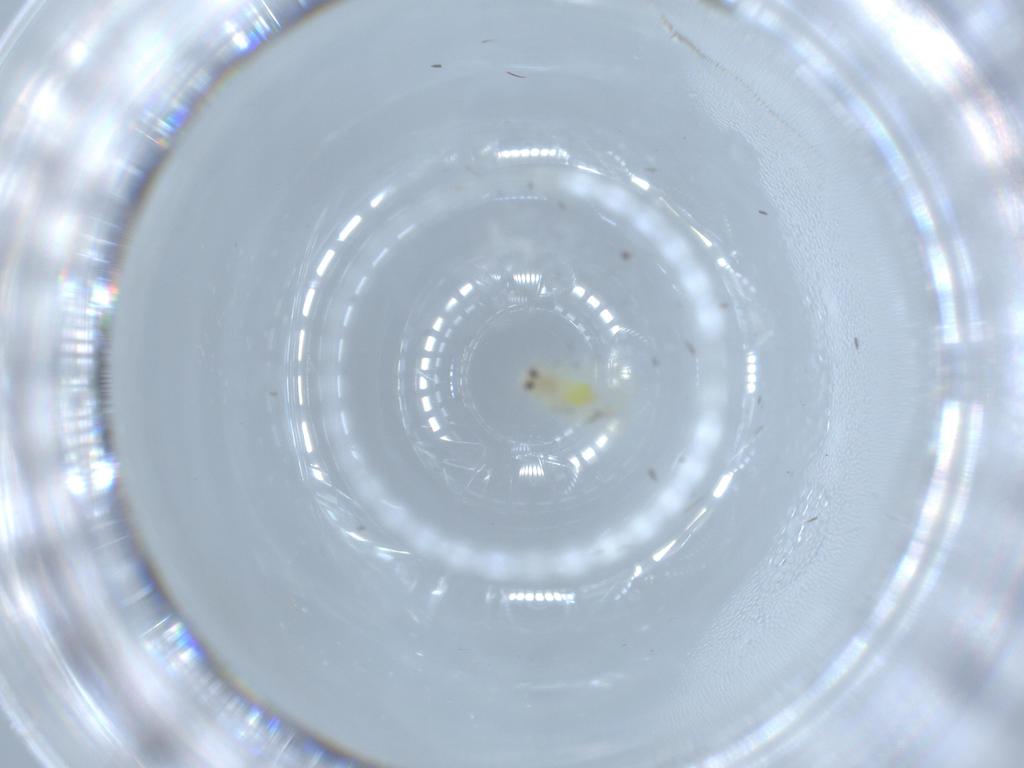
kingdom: Animalia
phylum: Arthropoda
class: Insecta
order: Hemiptera
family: Aleyrodidae
